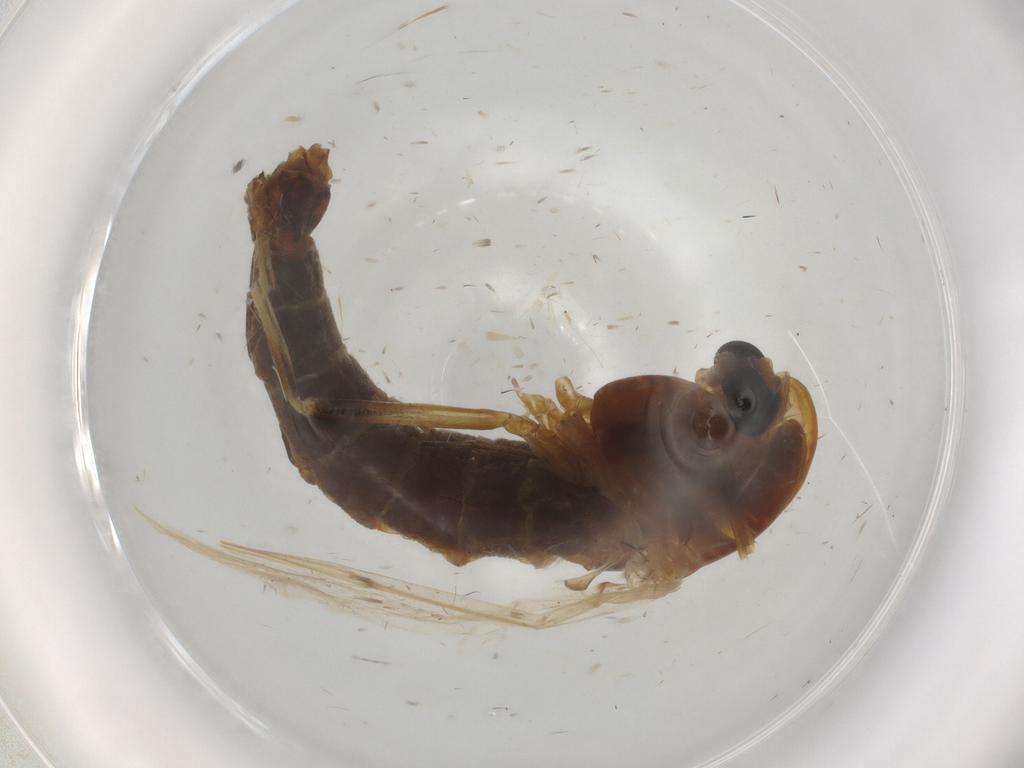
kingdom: Animalia
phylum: Arthropoda
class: Insecta
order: Diptera
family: Chironomidae
